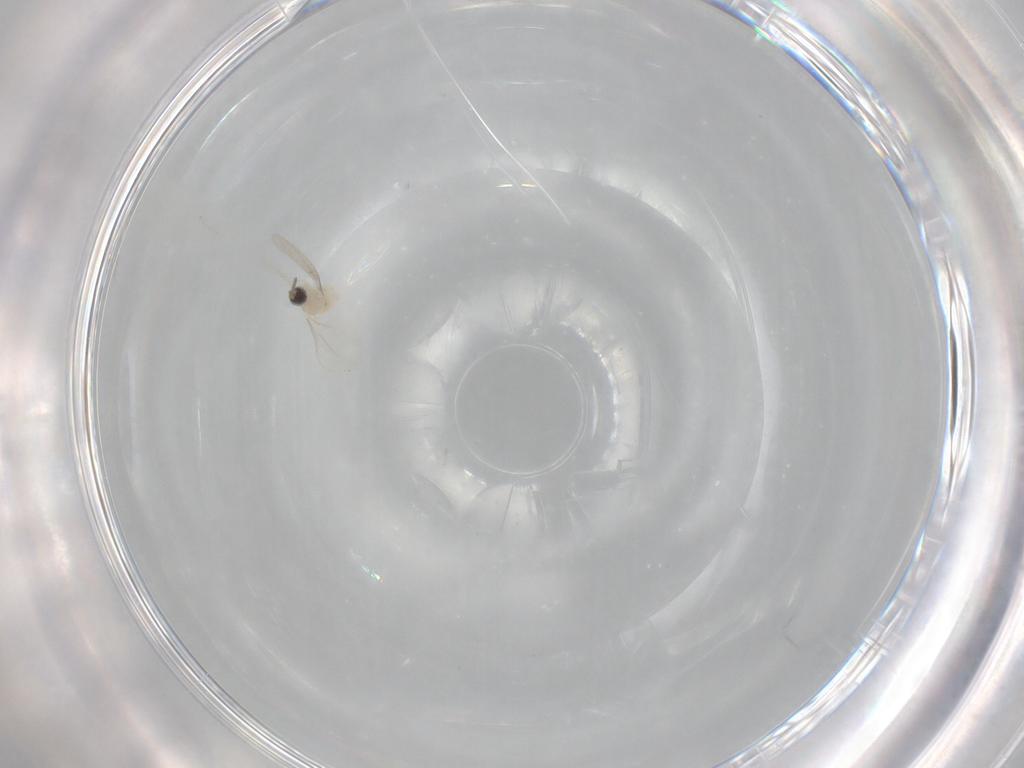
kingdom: Animalia
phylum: Arthropoda
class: Insecta
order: Diptera
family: Cecidomyiidae
